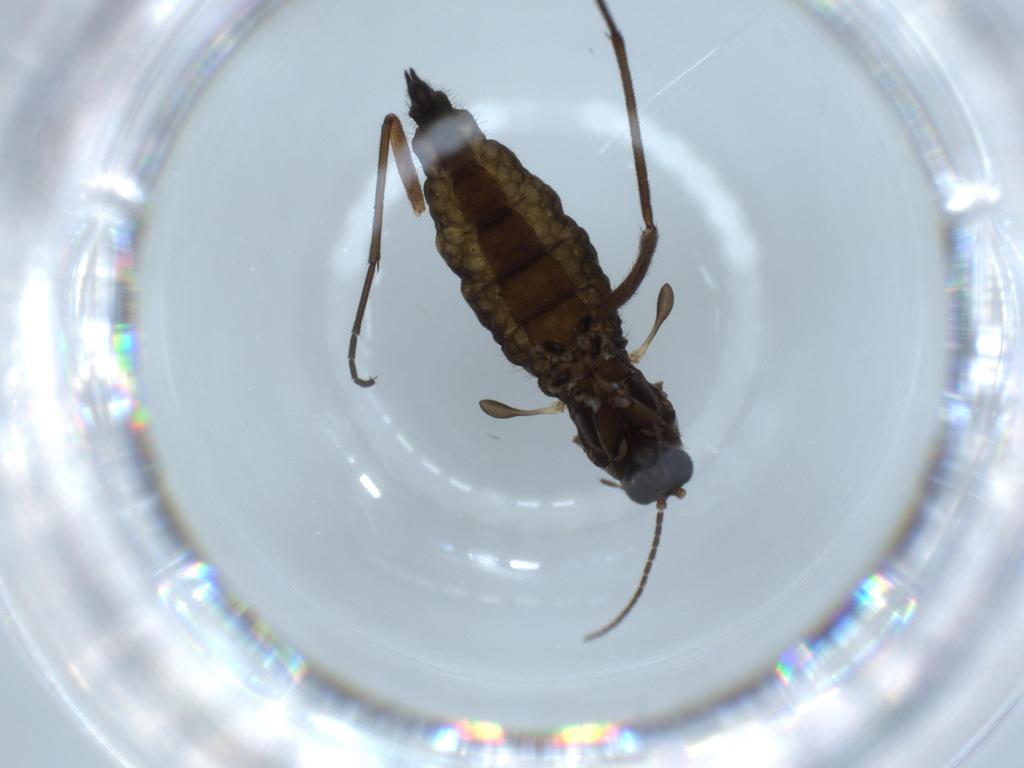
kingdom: Animalia
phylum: Arthropoda
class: Insecta
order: Diptera
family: Sciaridae
